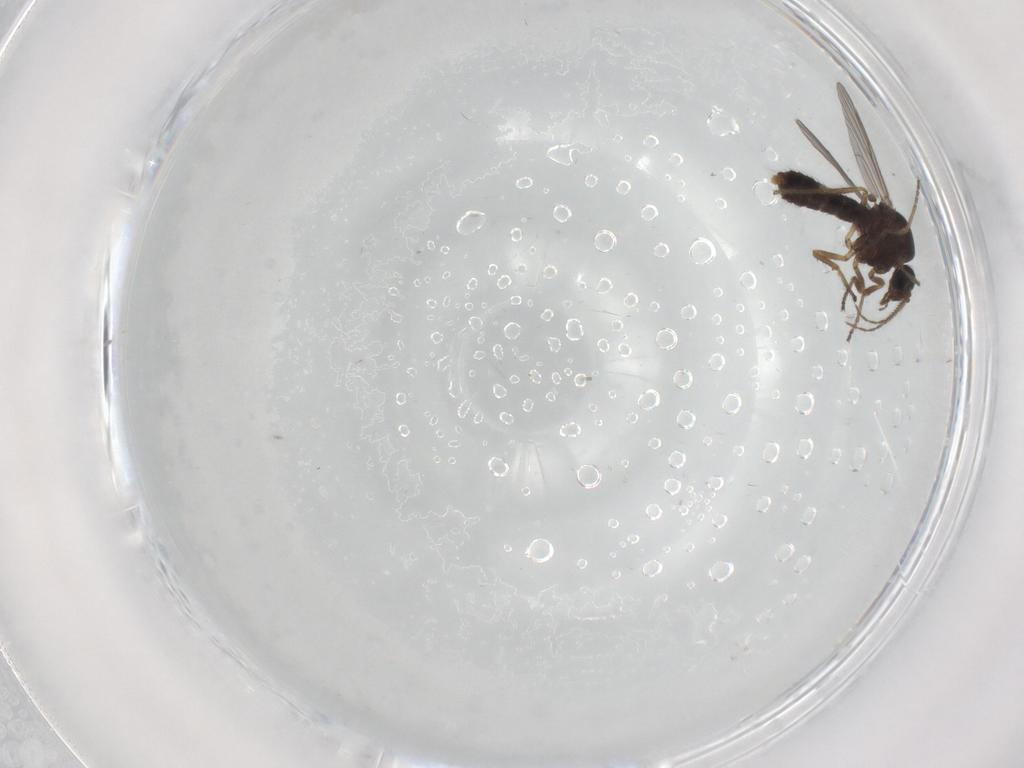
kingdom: Animalia
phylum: Arthropoda
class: Insecta
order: Diptera
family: Ceratopogonidae
